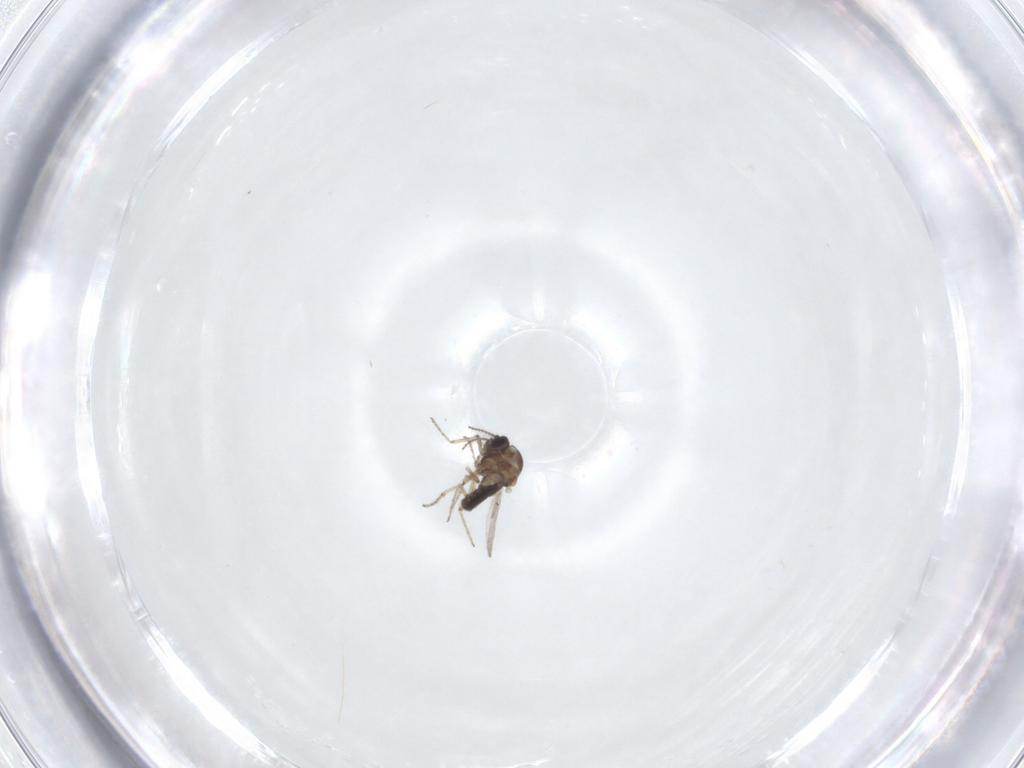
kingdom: Animalia
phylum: Arthropoda
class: Insecta
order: Diptera
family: Ceratopogonidae
